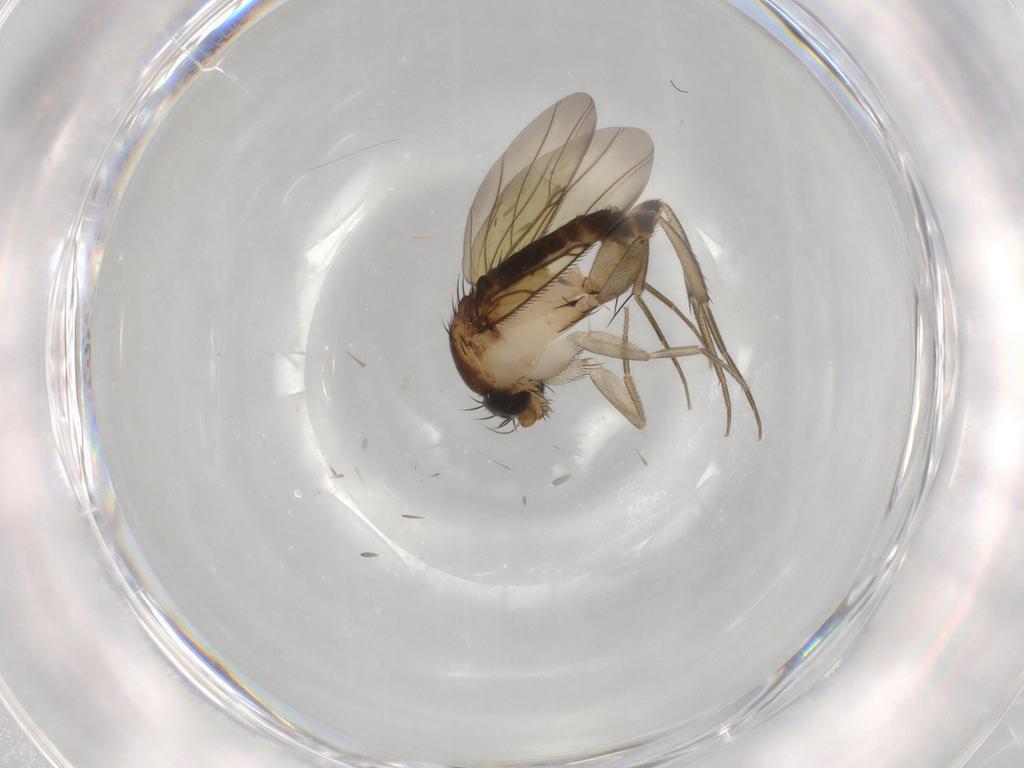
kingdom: Animalia
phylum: Arthropoda
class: Insecta
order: Diptera
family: Phoridae
